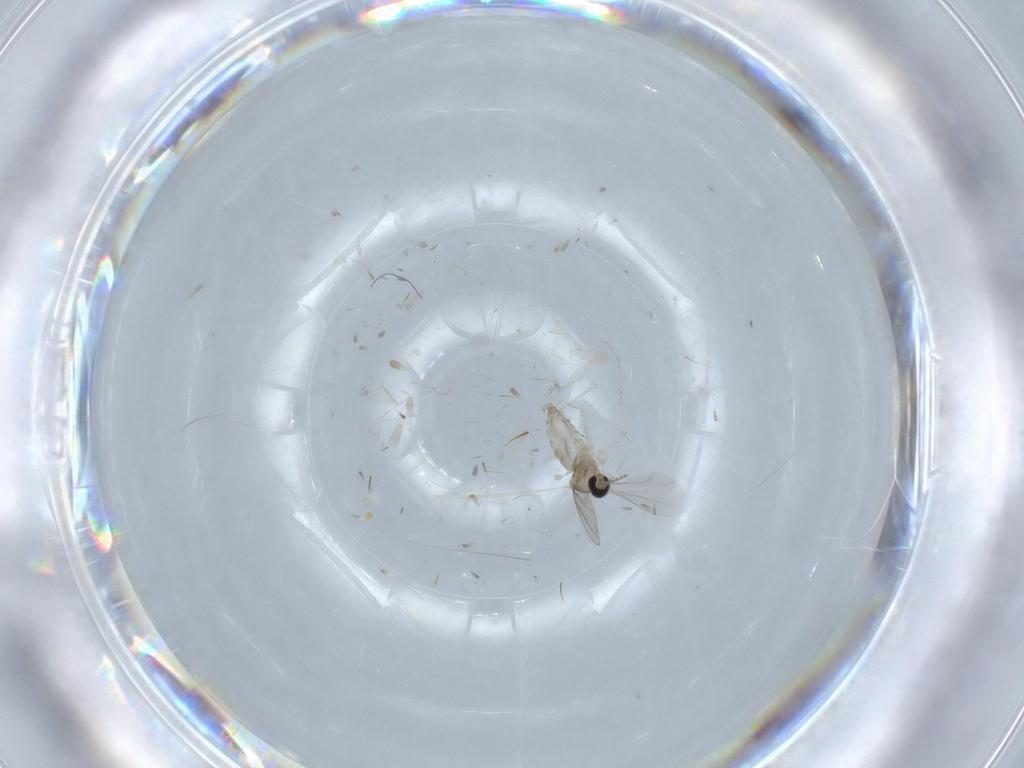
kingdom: Animalia
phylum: Arthropoda
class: Insecta
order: Diptera
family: Cecidomyiidae
